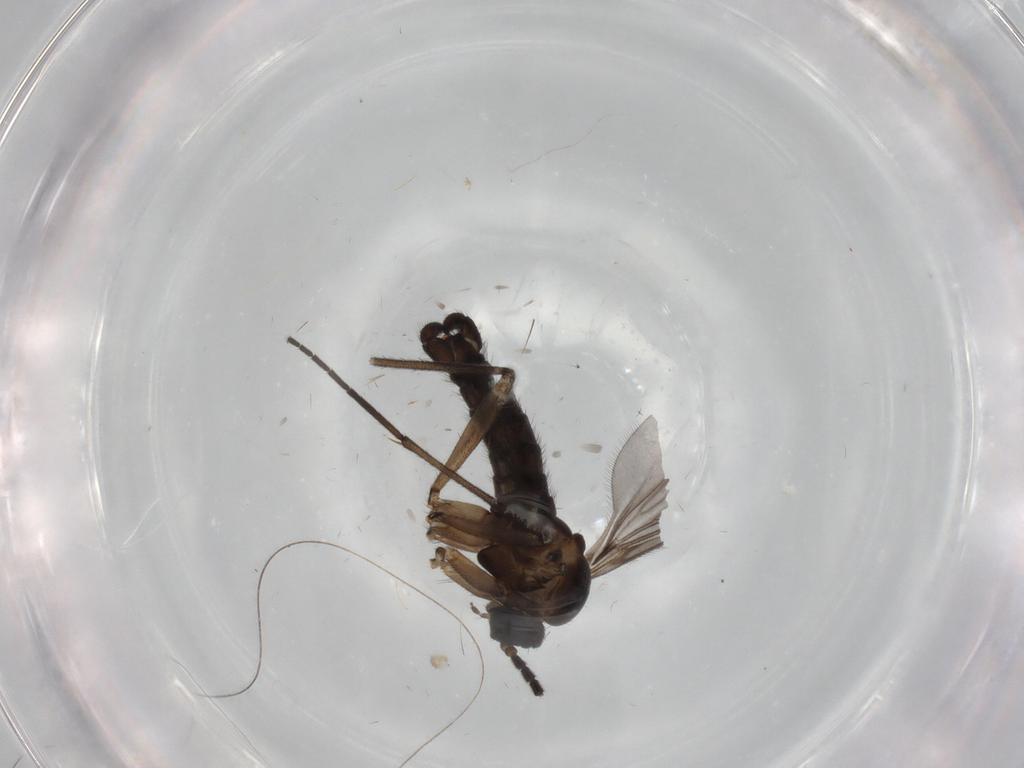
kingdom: Animalia
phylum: Arthropoda
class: Insecta
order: Diptera
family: Sciaridae
